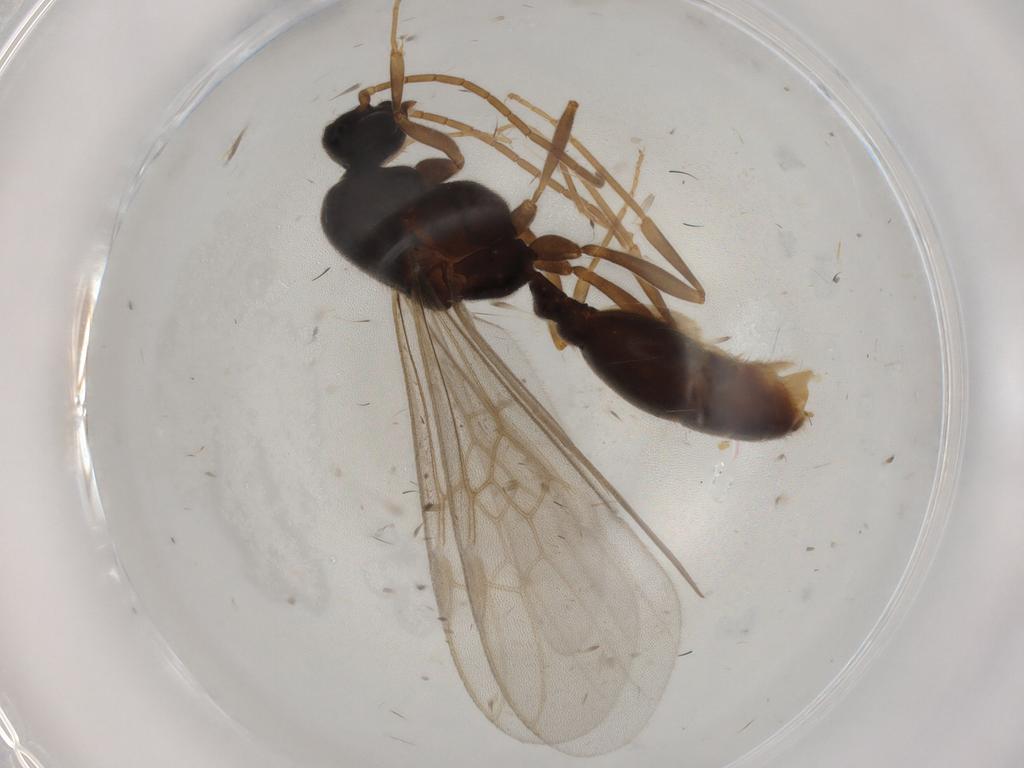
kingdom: Animalia
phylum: Arthropoda
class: Insecta
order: Hymenoptera
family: Formicidae
